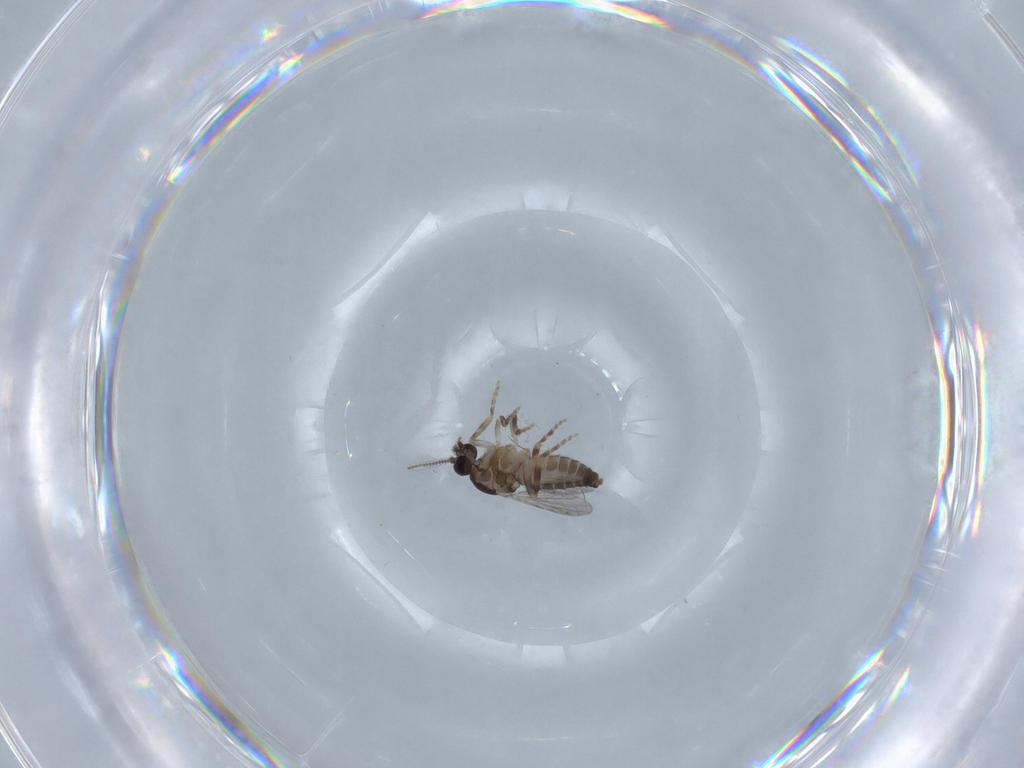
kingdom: Animalia
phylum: Arthropoda
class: Insecta
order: Diptera
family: Ceratopogonidae
